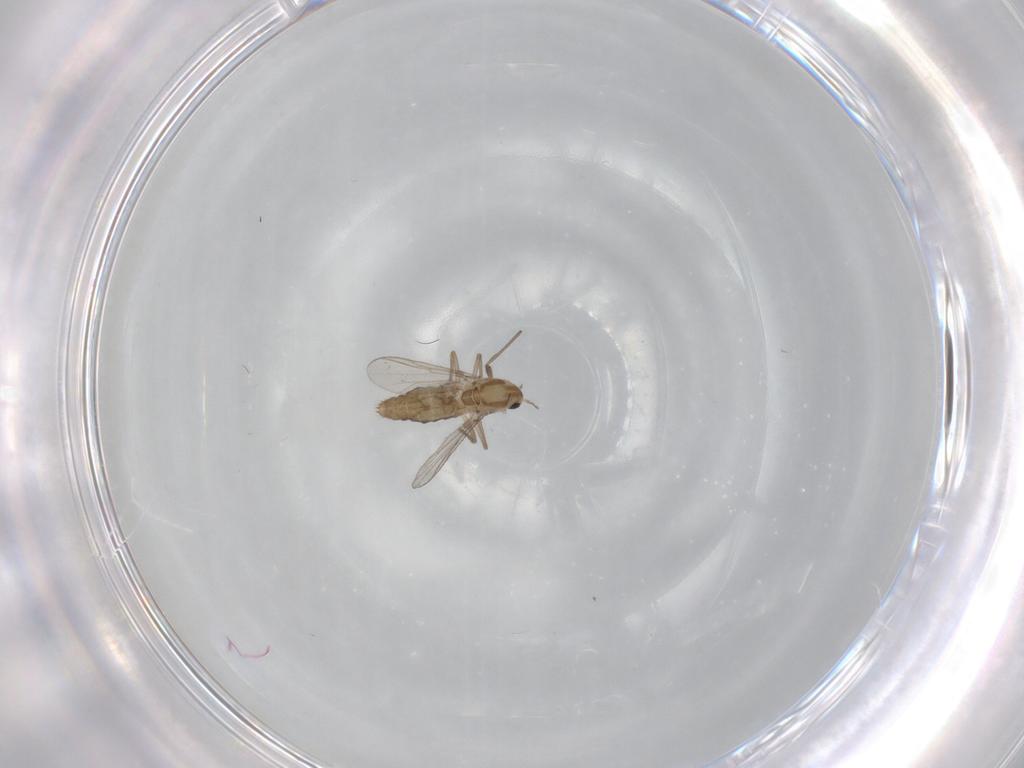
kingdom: Animalia
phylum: Arthropoda
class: Insecta
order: Diptera
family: Chironomidae
